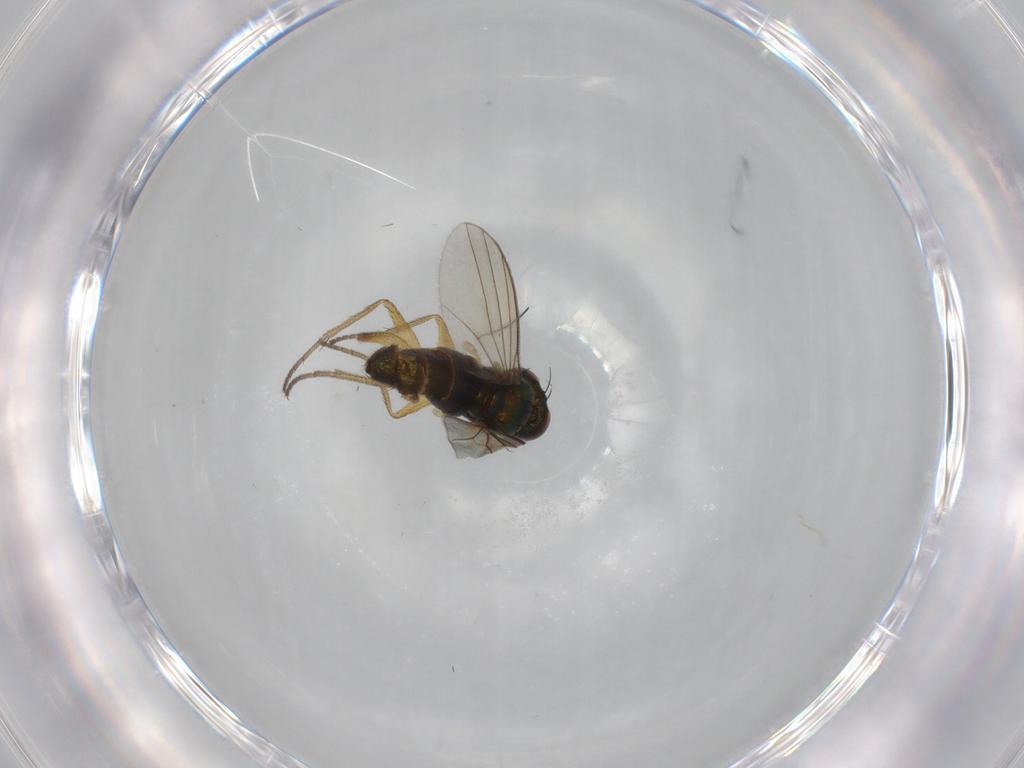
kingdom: Animalia
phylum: Arthropoda
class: Insecta
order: Diptera
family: Dolichopodidae
